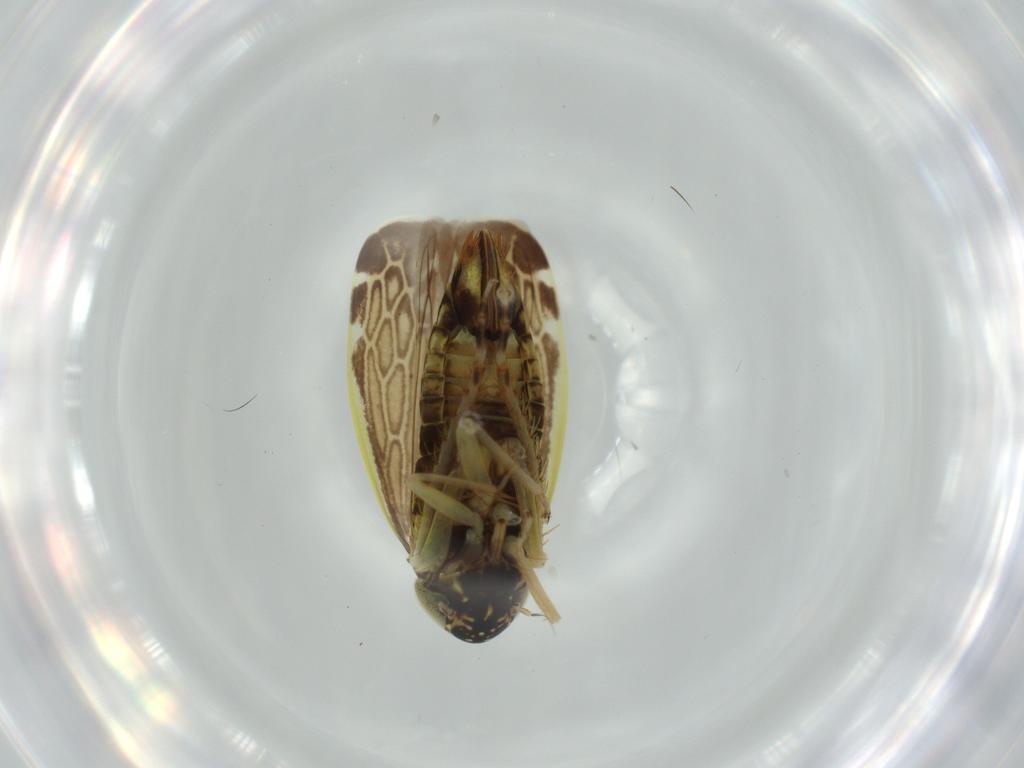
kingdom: Animalia
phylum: Arthropoda
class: Insecta
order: Hemiptera
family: Cicadellidae
